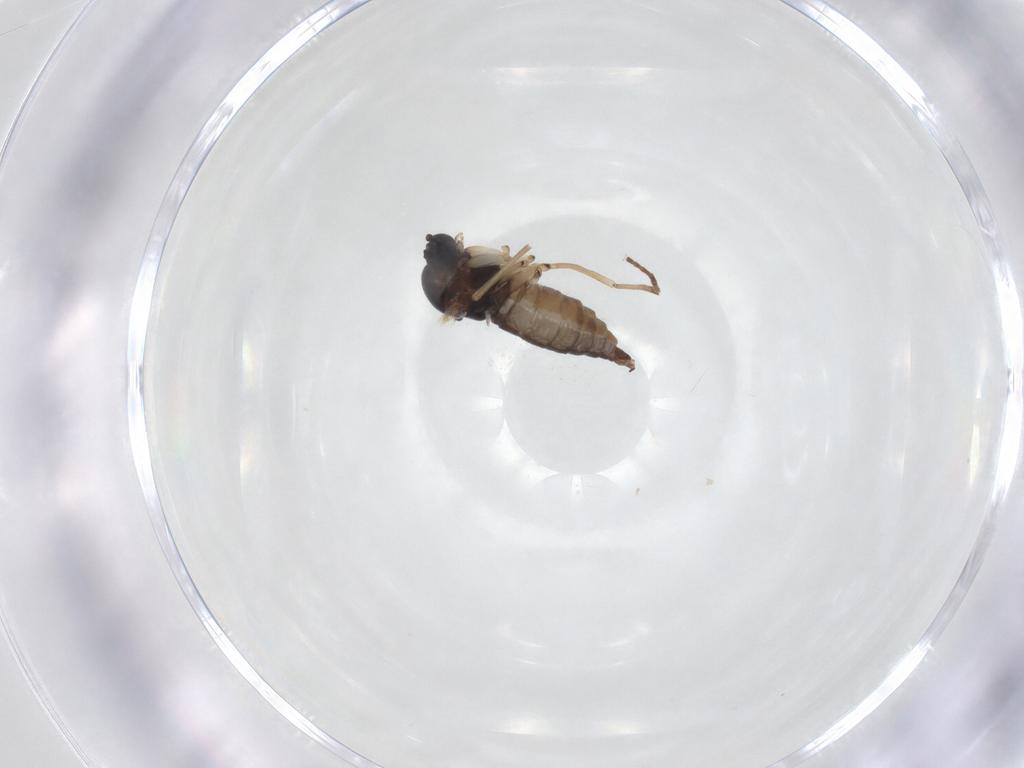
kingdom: Animalia
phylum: Arthropoda
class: Insecta
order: Diptera
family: Sciaridae
